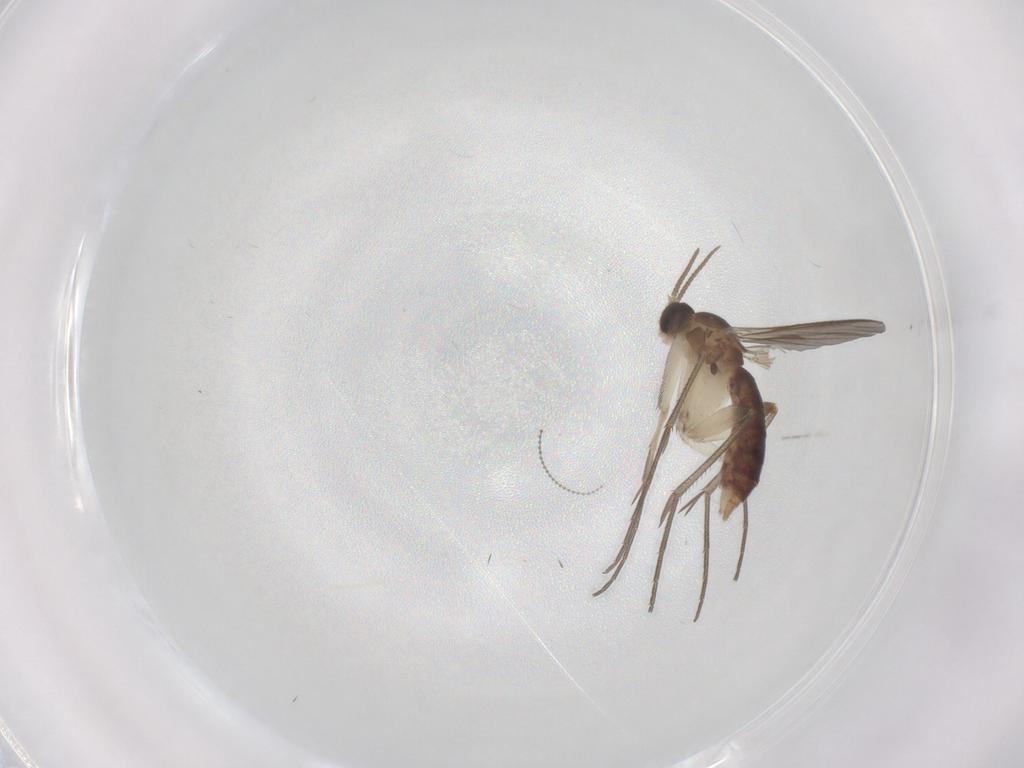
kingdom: Animalia
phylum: Arthropoda
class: Insecta
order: Diptera
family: Mycetophilidae
